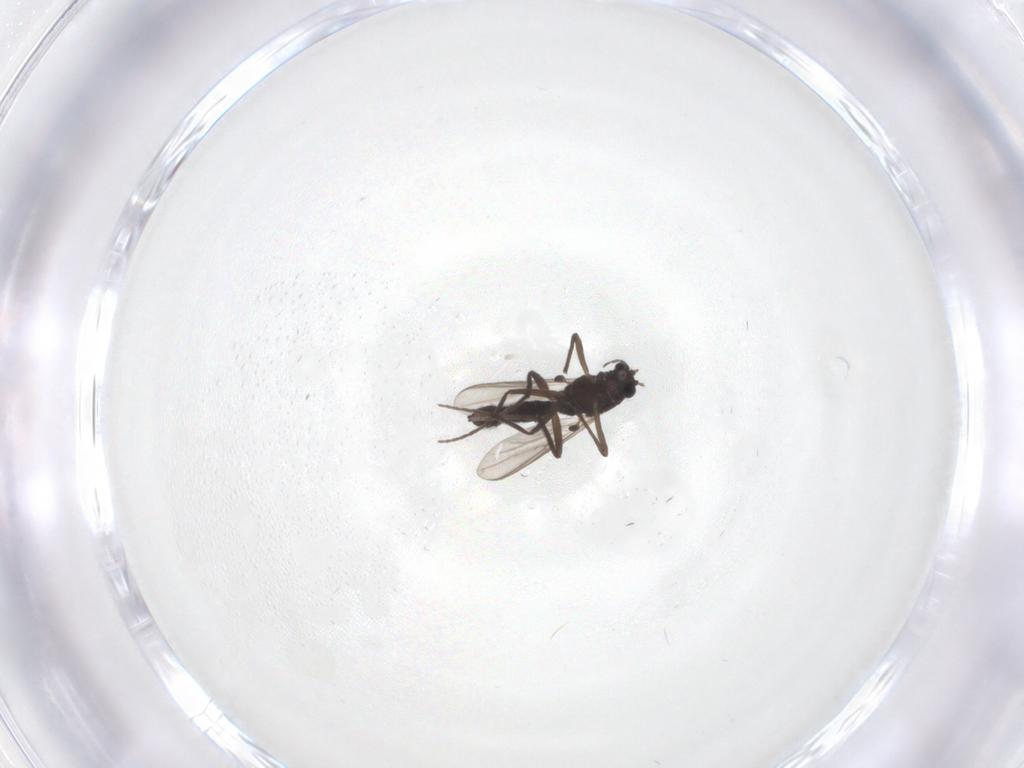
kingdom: Animalia
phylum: Arthropoda
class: Insecta
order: Diptera
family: Chironomidae
